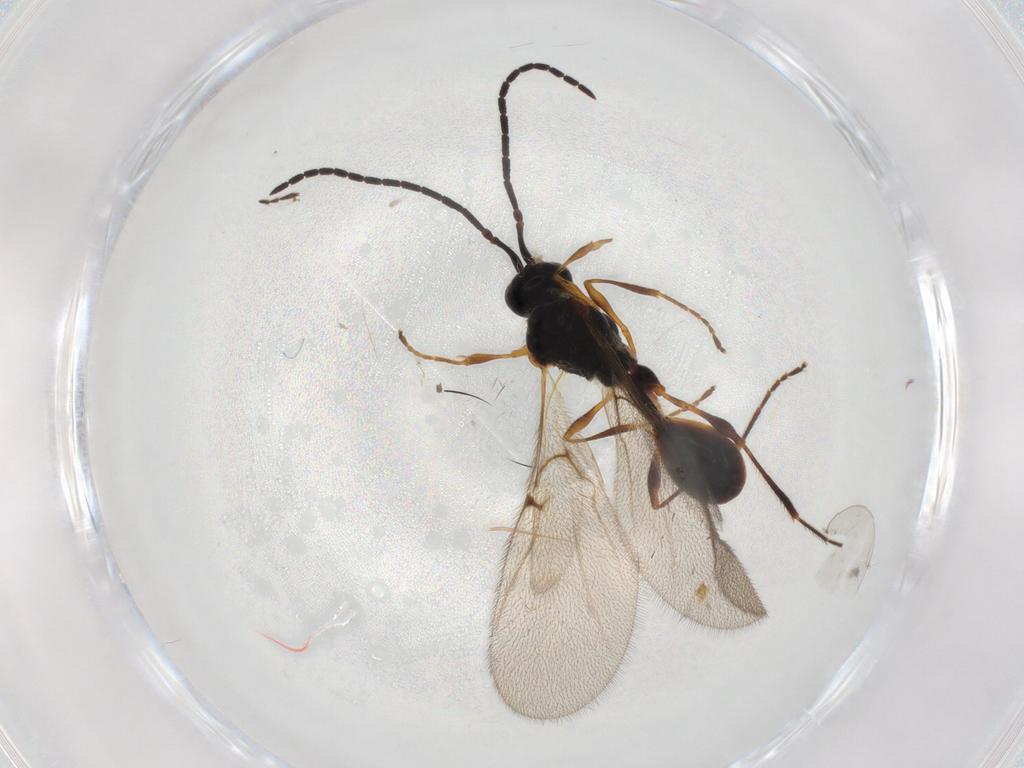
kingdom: Animalia
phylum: Arthropoda
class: Insecta
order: Hymenoptera
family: Diapriidae
